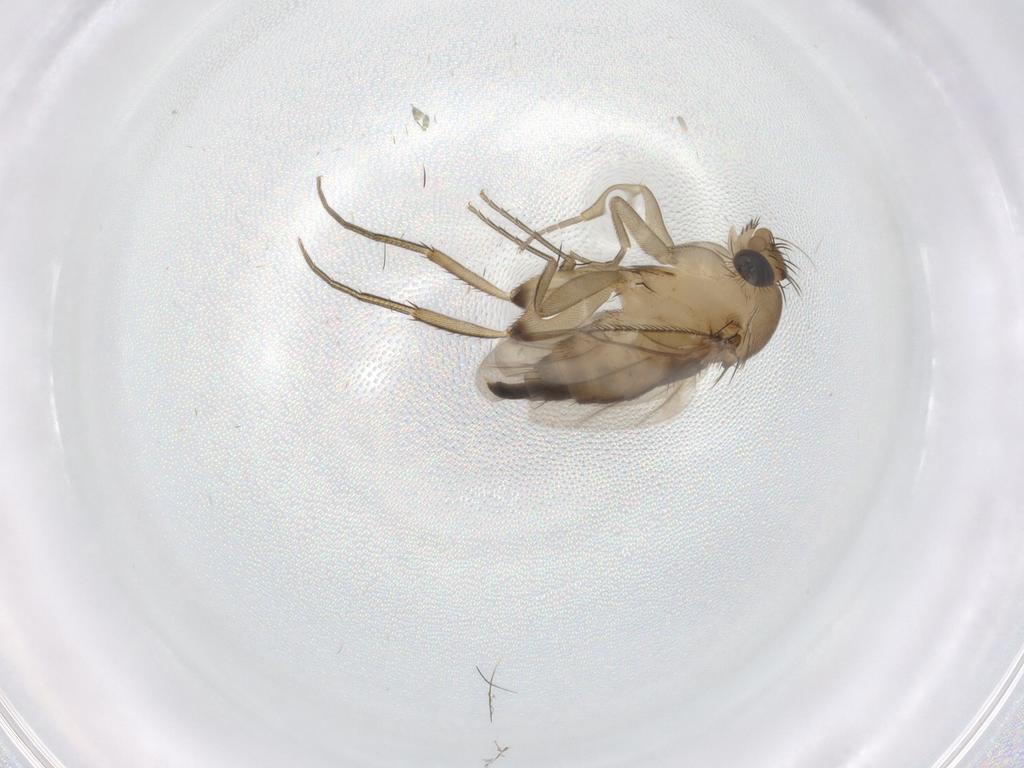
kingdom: Animalia
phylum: Arthropoda
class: Insecta
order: Diptera
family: Phoridae
